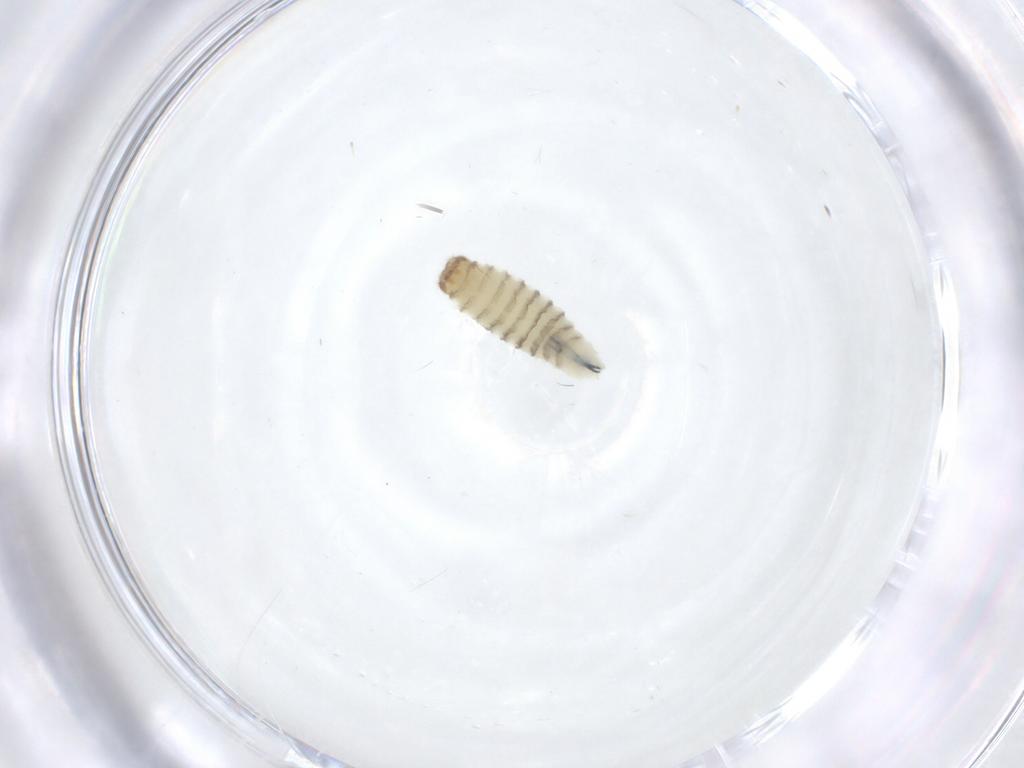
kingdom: Animalia
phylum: Arthropoda
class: Insecta
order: Diptera
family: Sarcophagidae
